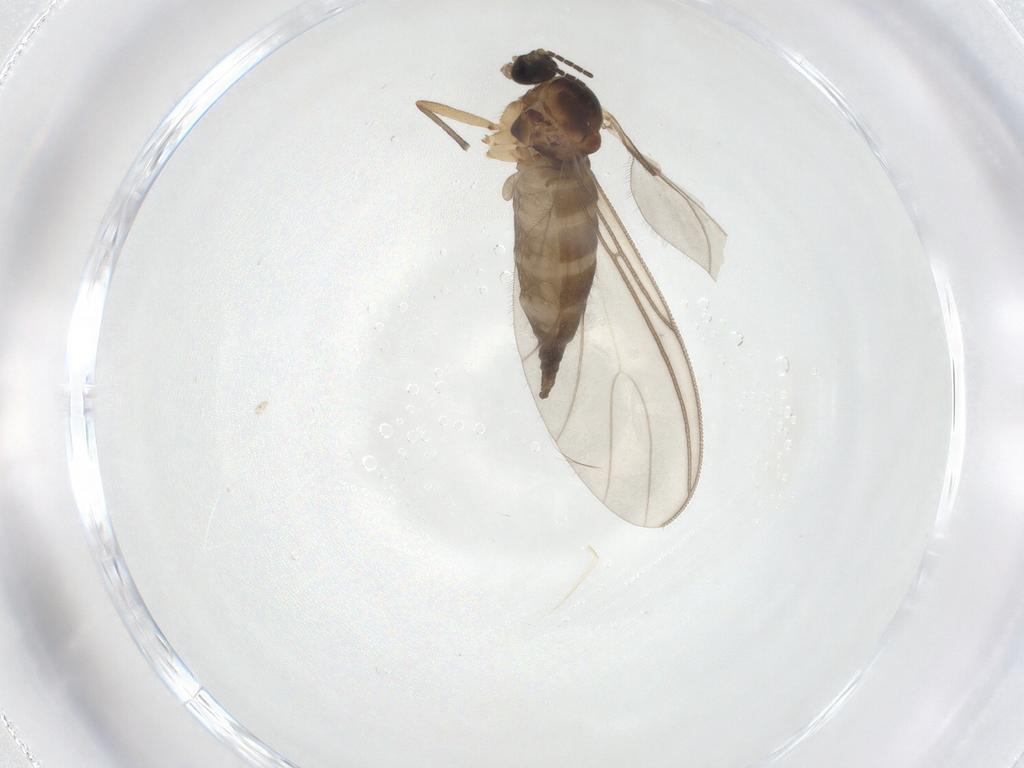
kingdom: Animalia
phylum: Arthropoda
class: Insecta
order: Diptera
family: Sciaridae
